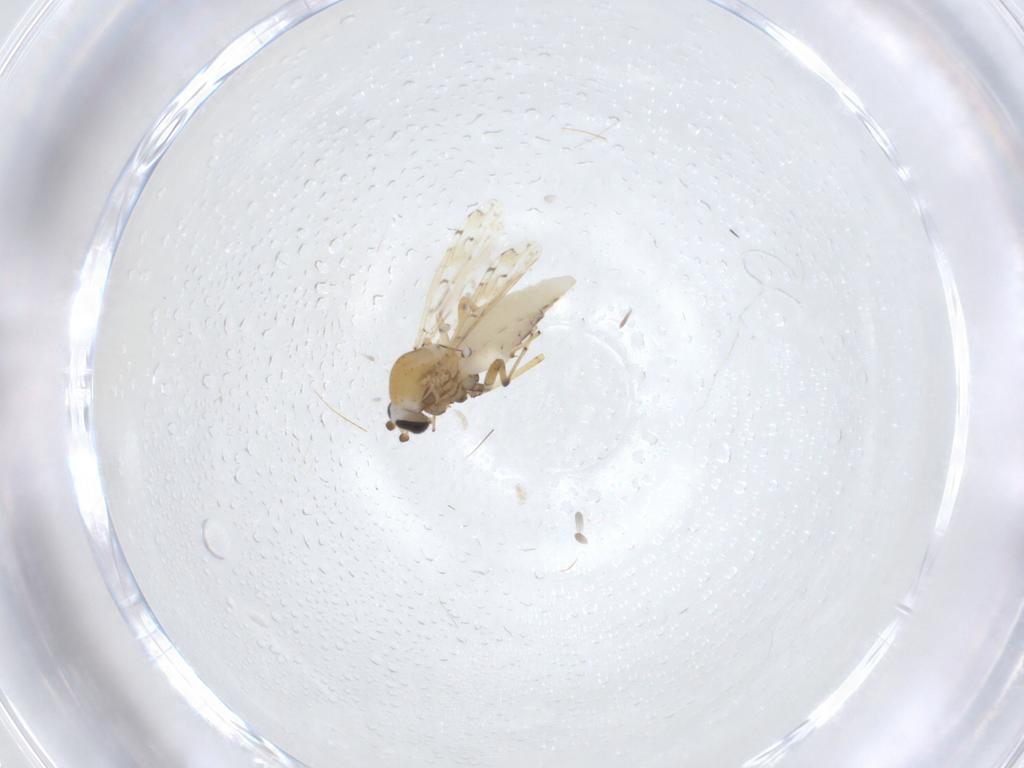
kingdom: Animalia
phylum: Arthropoda
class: Insecta
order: Diptera
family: Ceratopogonidae
